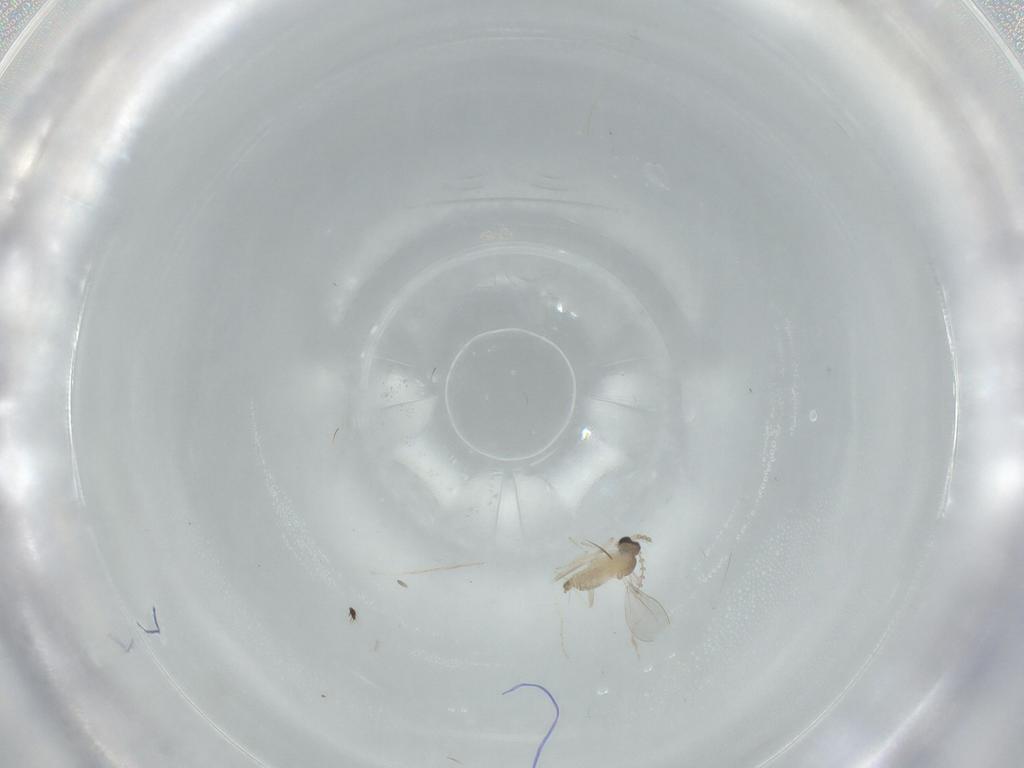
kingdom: Animalia
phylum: Arthropoda
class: Insecta
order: Diptera
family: Cecidomyiidae
